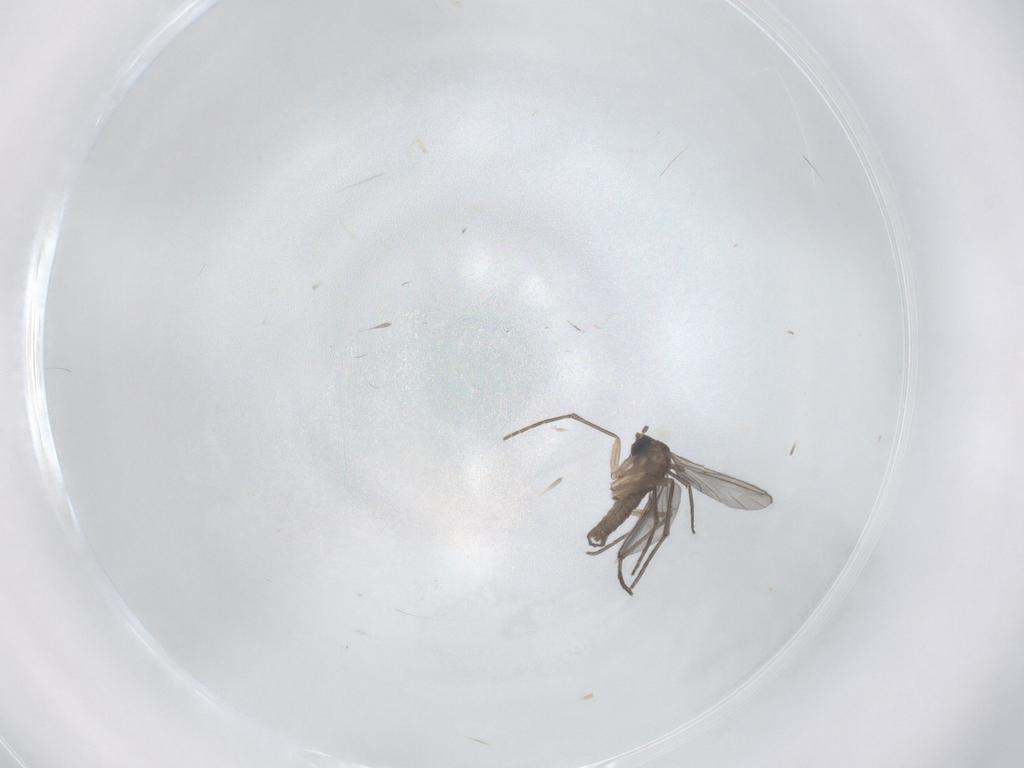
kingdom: Animalia
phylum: Arthropoda
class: Insecta
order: Diptera
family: Sciaridae
